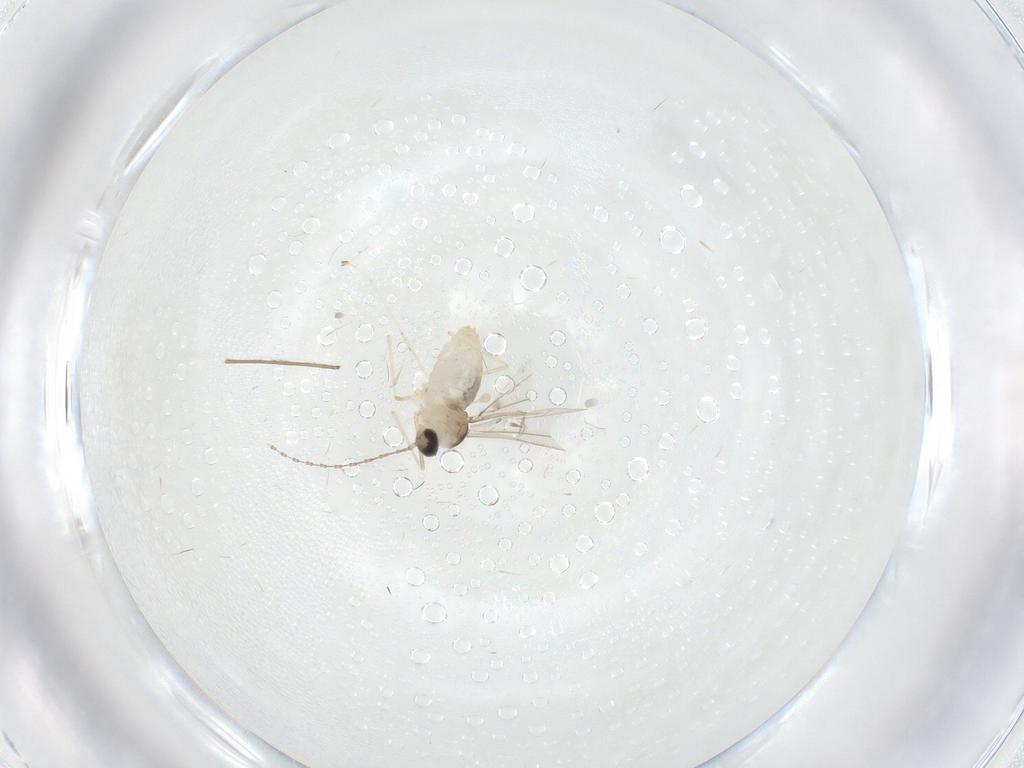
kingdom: Animalia
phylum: Arthropoda
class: Insecta
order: Diptera
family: Cecidomyiidae
